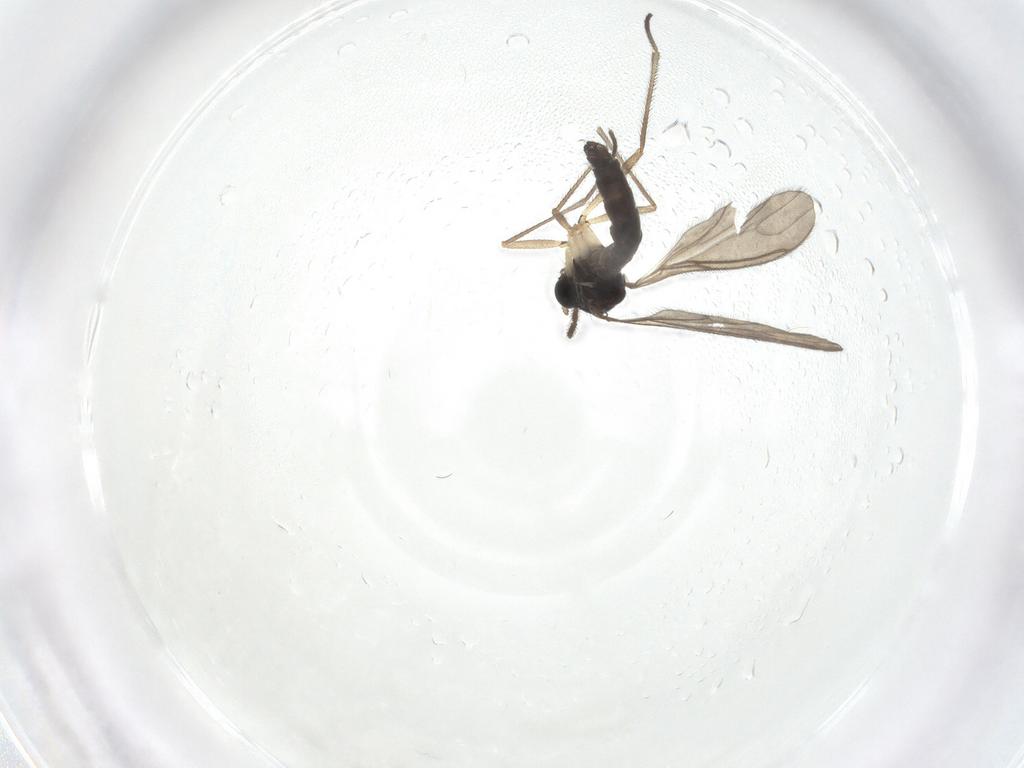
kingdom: Animalia
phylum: Arthropoda
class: Insecta
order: Diptera
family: Sciaridae
